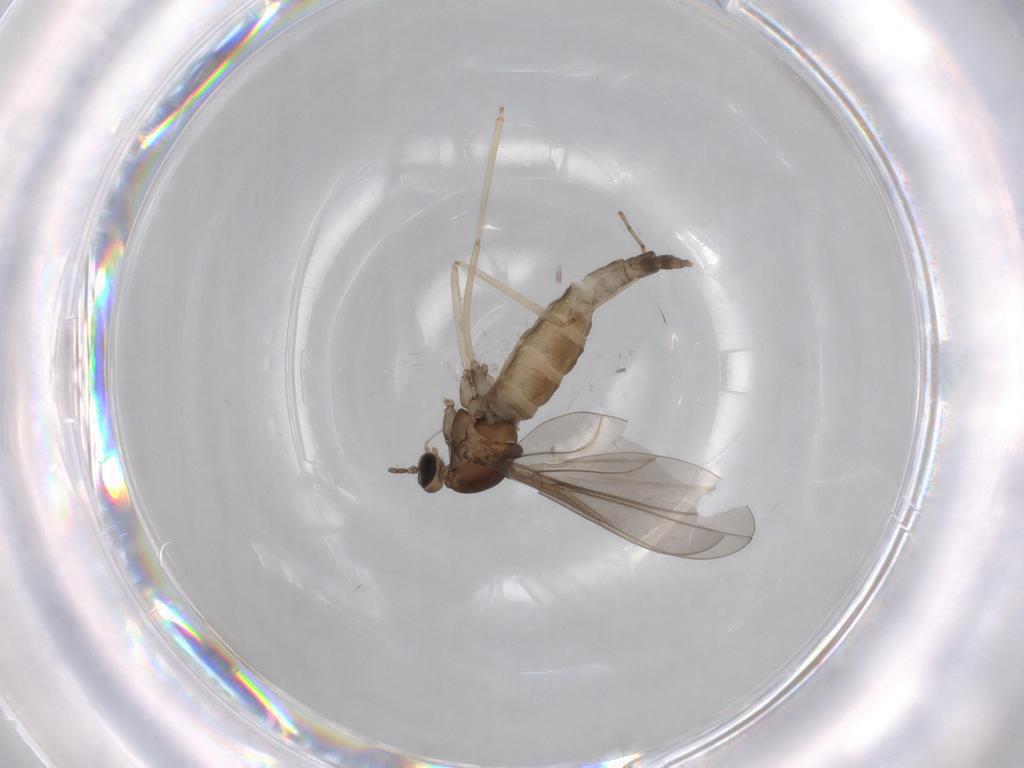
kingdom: Animalia
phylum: Arthropoda
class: Insecta
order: Diptera
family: Cecidomyiidae
